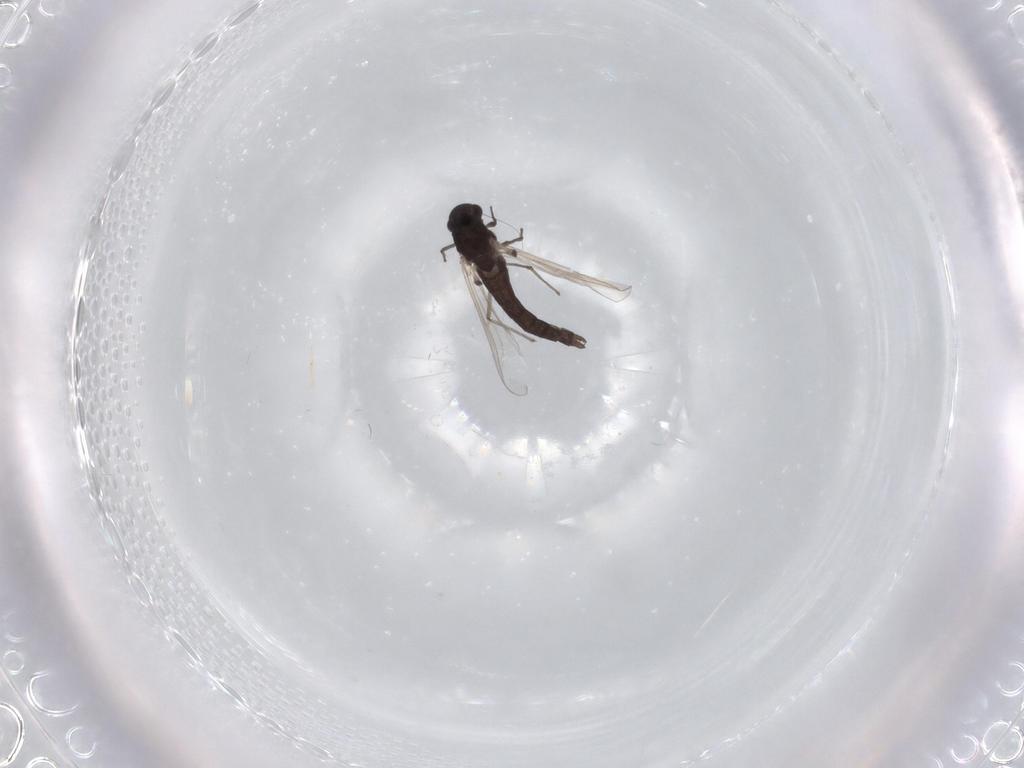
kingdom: Animalia
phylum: Arthropoda
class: Insecta
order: Diptera
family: Chironomidae
